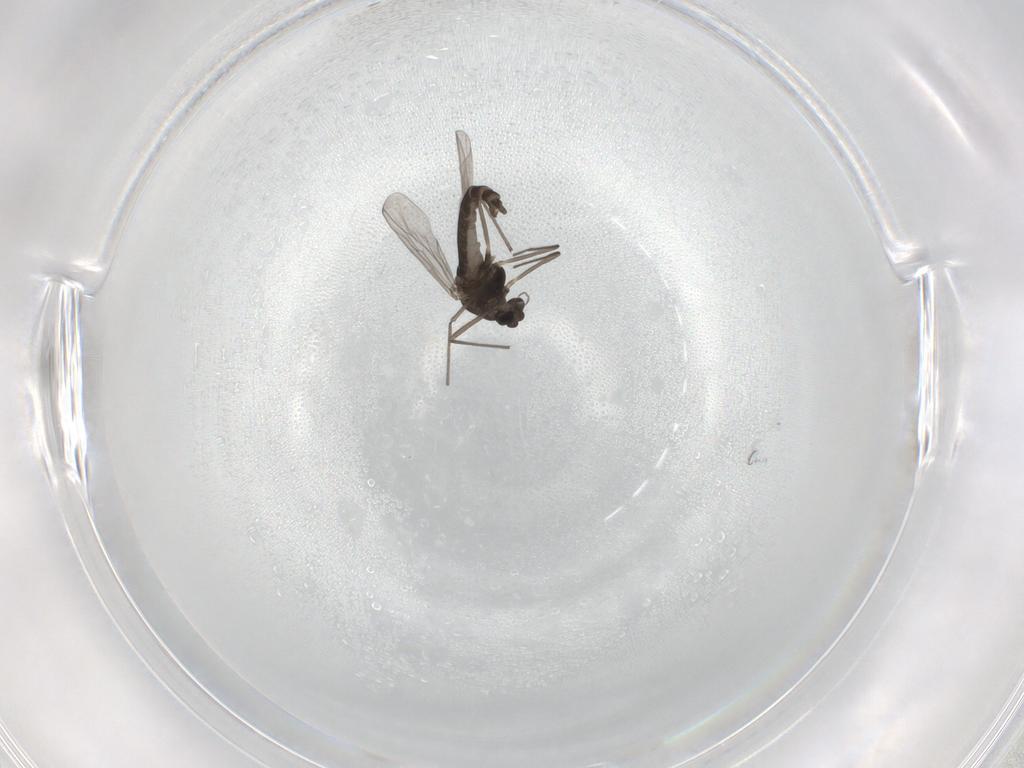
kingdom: Animalia
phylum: Arthropoda
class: Insecta
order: Diptera
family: Chironomidae
